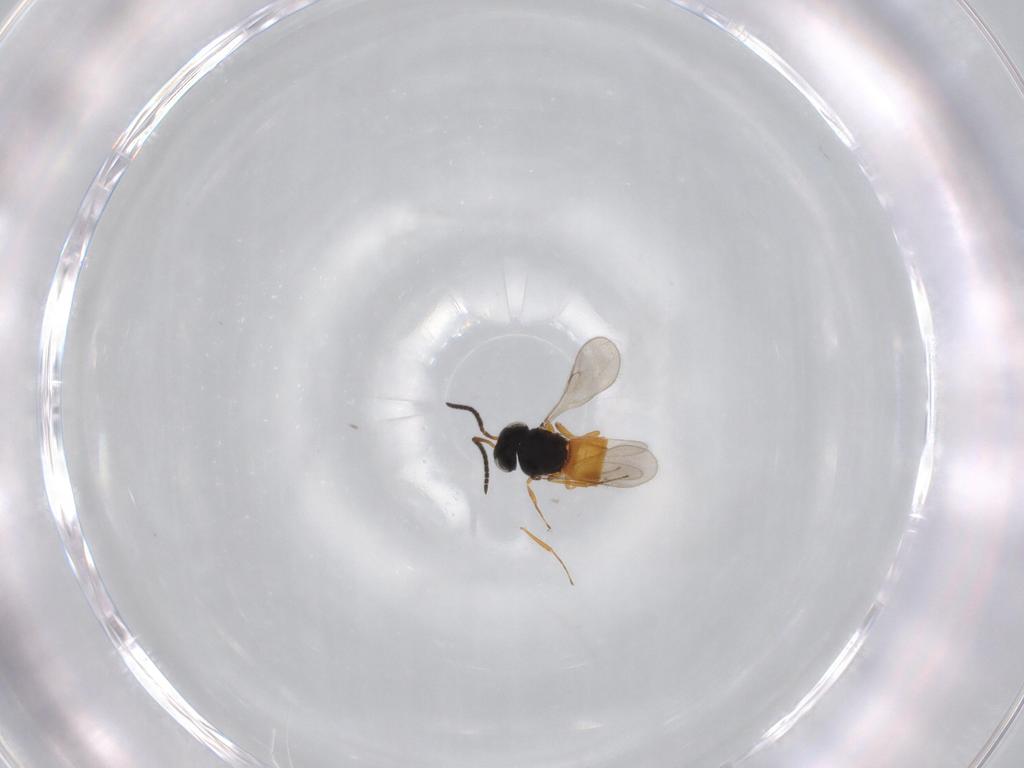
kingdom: Animalia
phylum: Arthropoda
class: Insecta
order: Hymenoptera
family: Scelionidae
